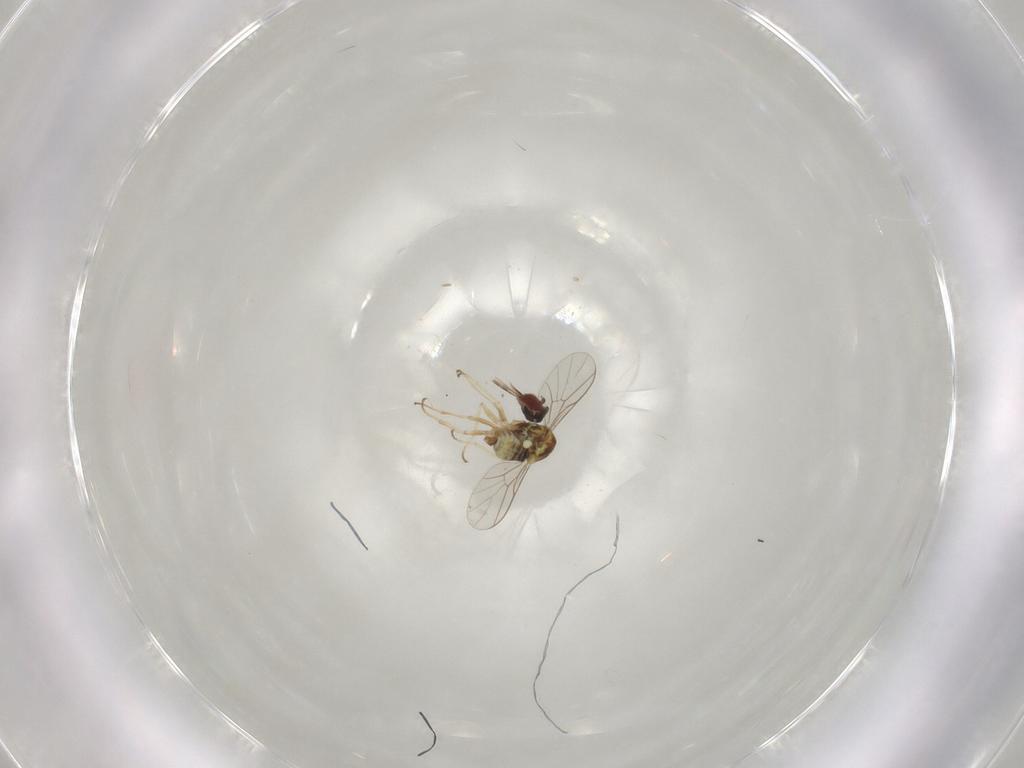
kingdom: Animalia
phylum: Arthropoda
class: Insecta
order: Diptera
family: Mythicomyiidae
